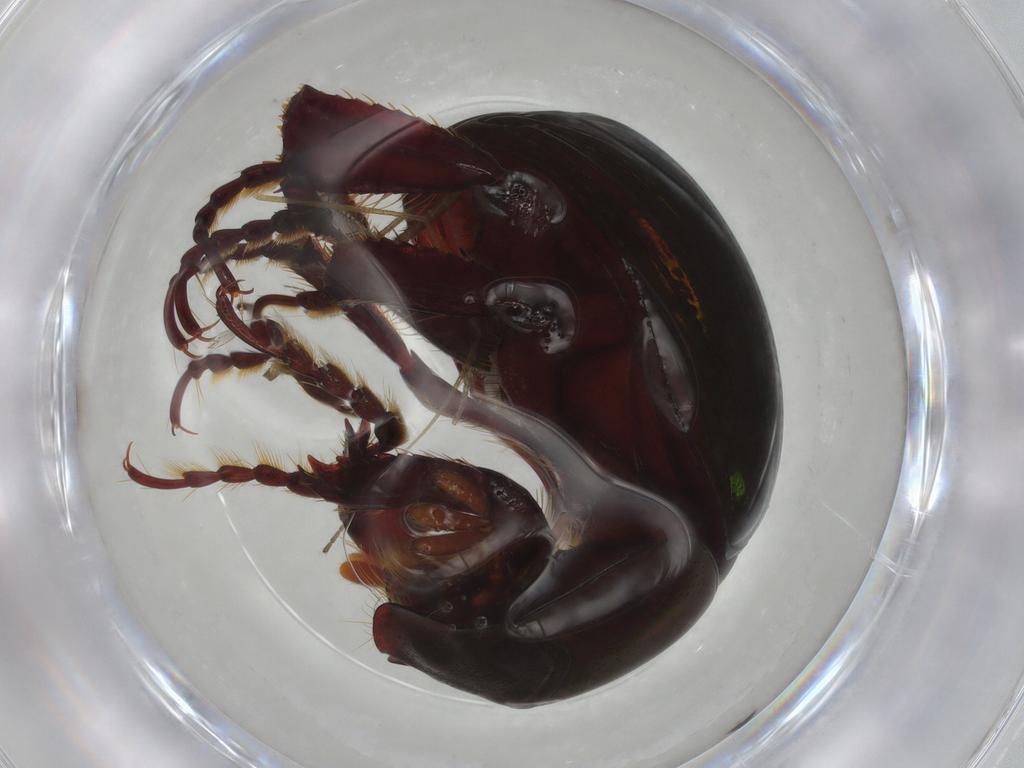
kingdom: Animalia
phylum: Arthropoda
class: Insecta
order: Coleoptera
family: Hybosoridae
